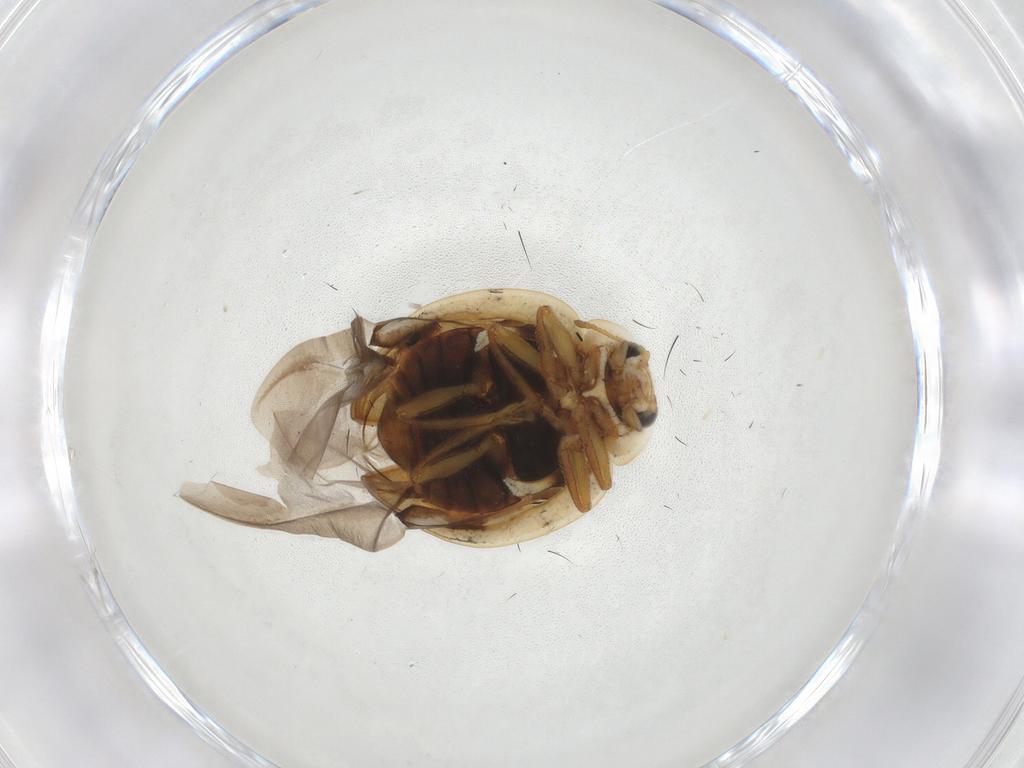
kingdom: Animalia
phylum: Arthropoda
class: Insecta
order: Coleoptera
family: Coccinellidae
